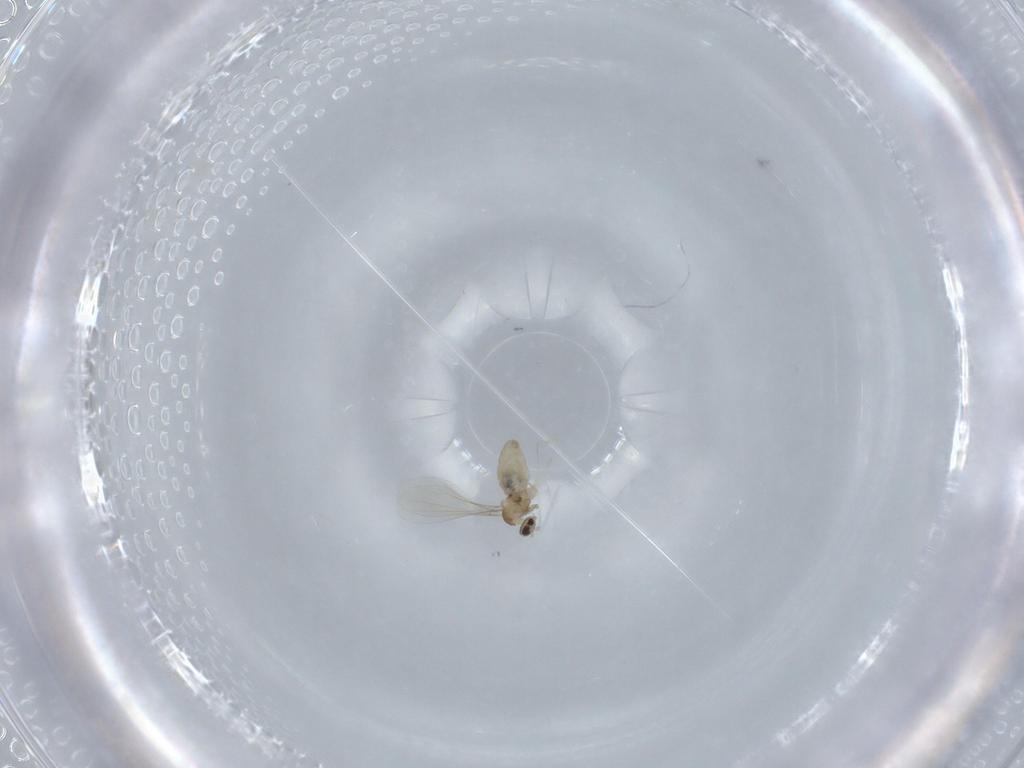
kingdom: Animalia
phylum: Arthropoda
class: Insecta
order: Diptera
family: Cecidomyiidae
